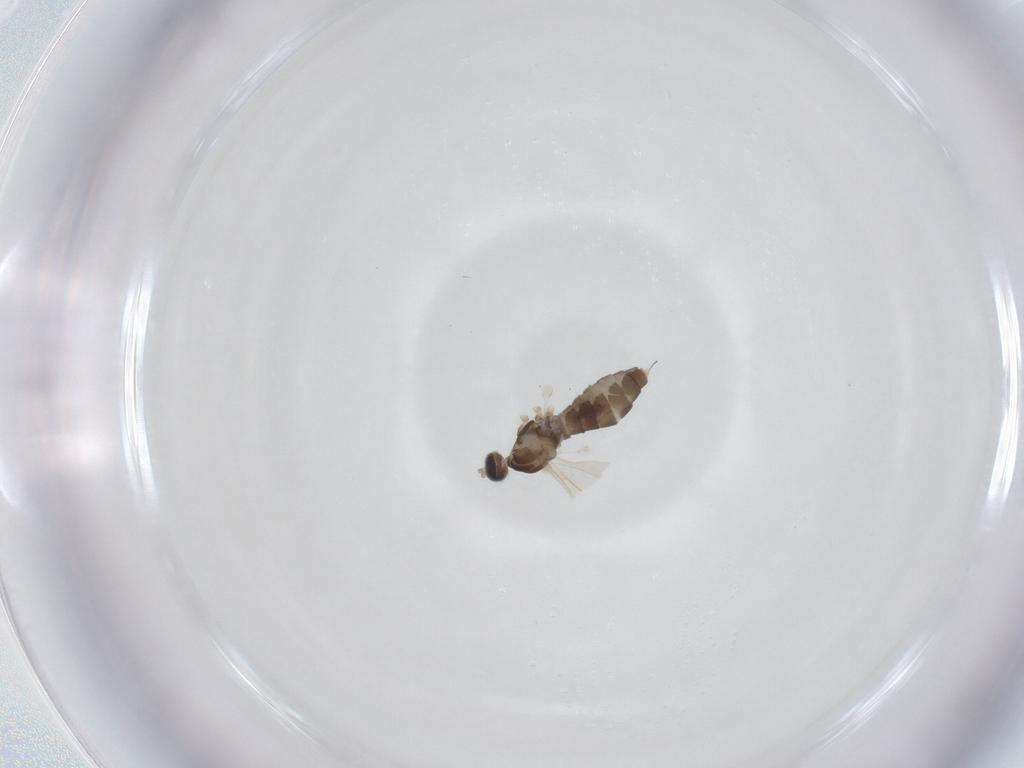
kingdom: Animalia
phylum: Arthropoda
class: Insecta
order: Diptera
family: Cecidomyiidae
